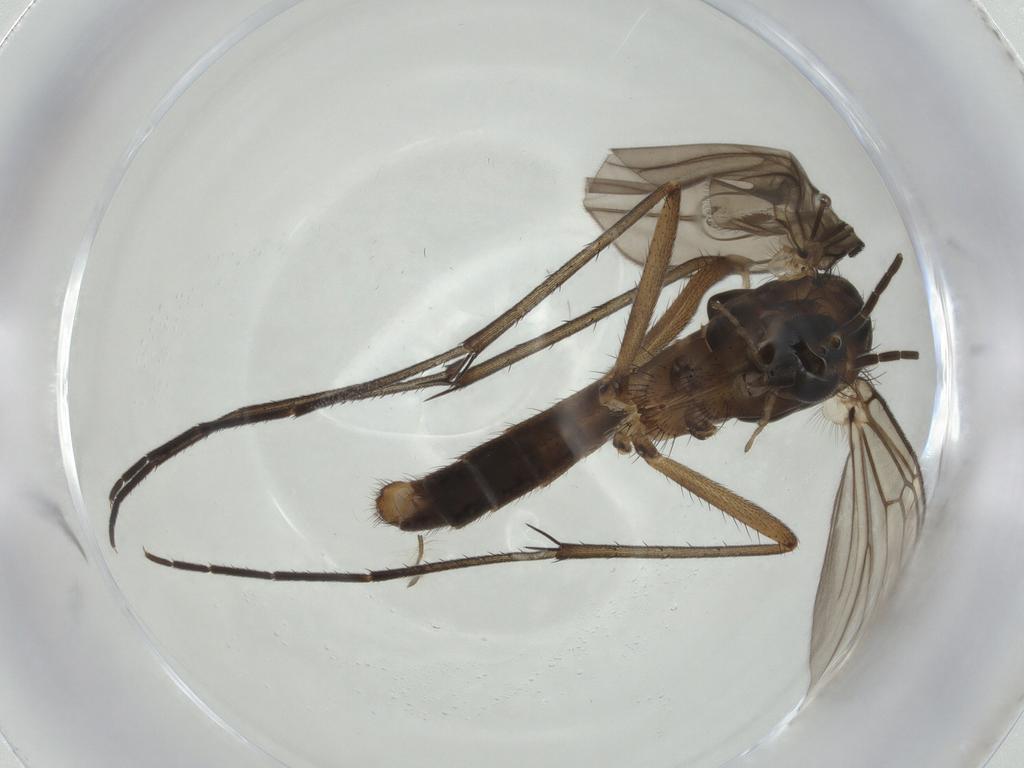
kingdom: Animalia
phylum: Arthropoda
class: Insecta
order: Diptera
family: Mycetophilidae
